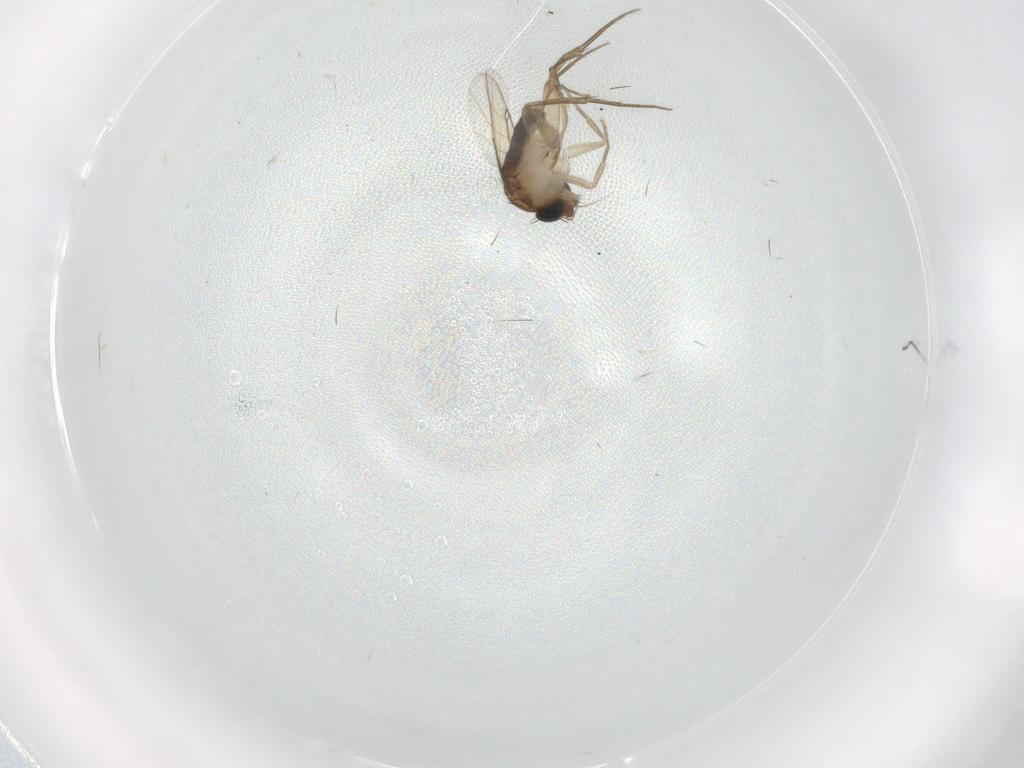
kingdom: Animalia
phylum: Arthropoda
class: Insecta
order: Diptera
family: Phoridae
